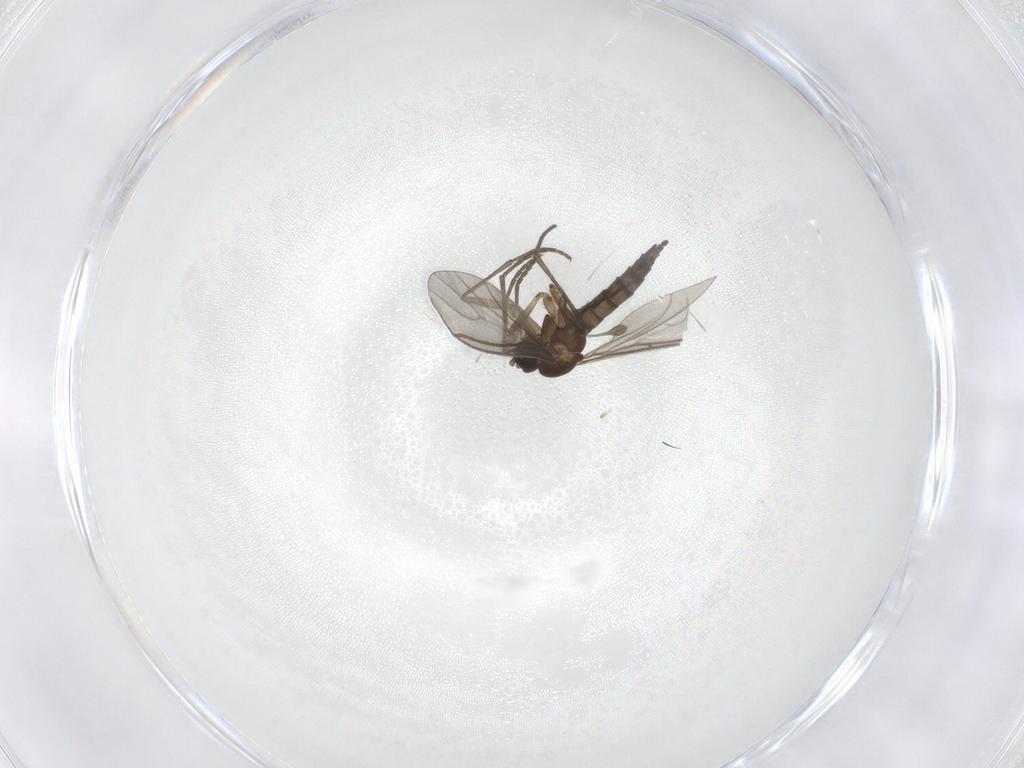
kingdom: Animalia
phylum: Arthropoda
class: Insecta
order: Diptera
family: Sciaridae
